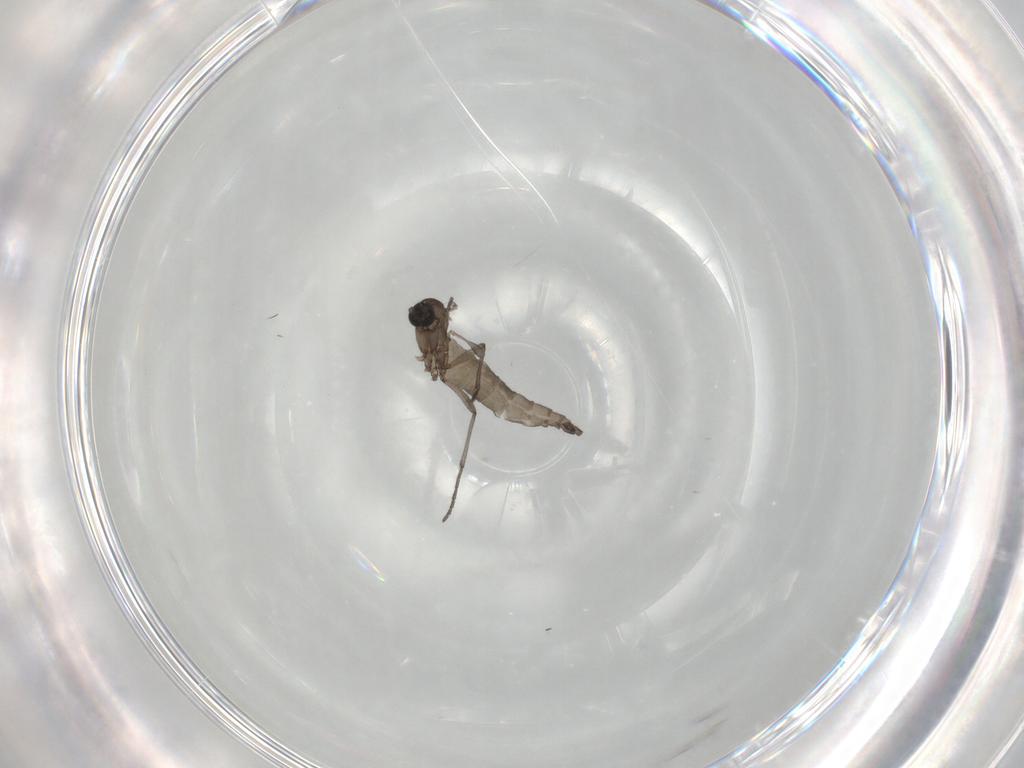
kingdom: Animalia
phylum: Arthropoda
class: Insecta
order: Diptera
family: Sciaridae
